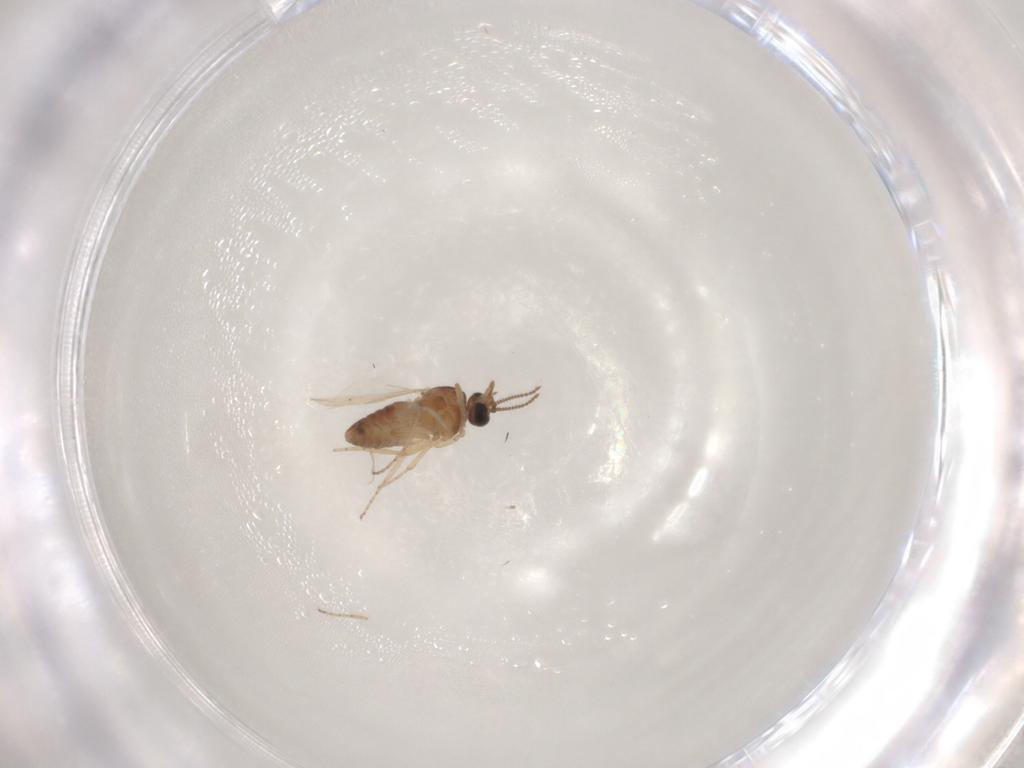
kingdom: Animalia
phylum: Arthropoda
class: Insecta
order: Diptera
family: Ceratopogonidae
